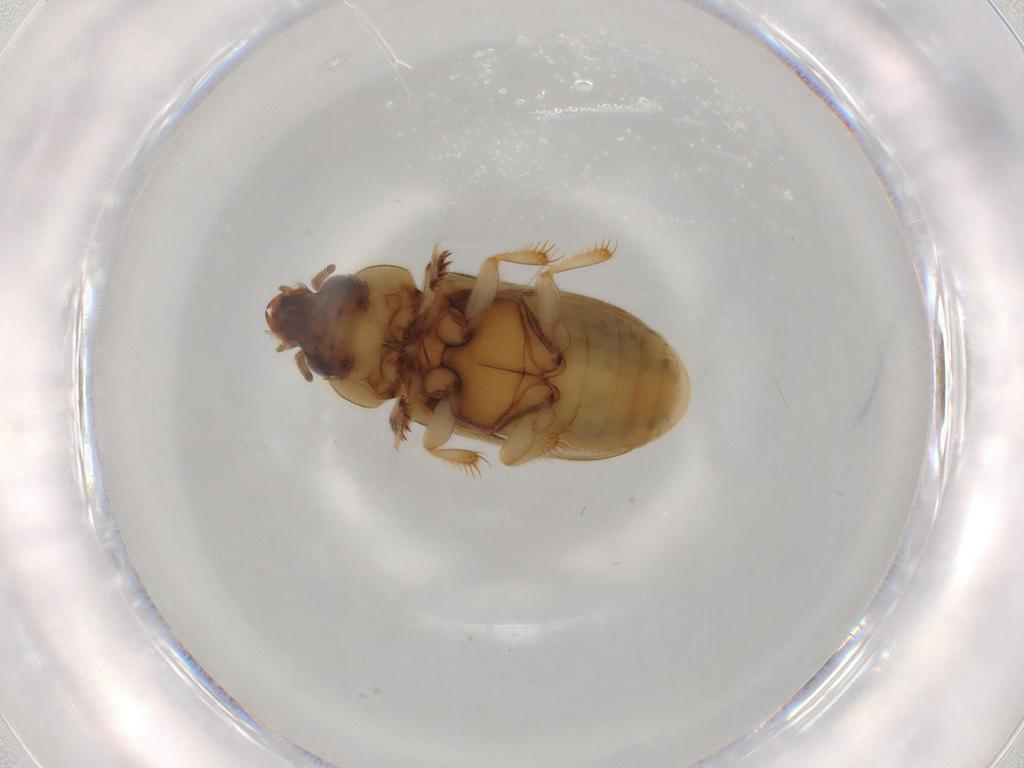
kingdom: Animalia
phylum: Arthropoda
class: Insecta
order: Coleoptera
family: Heteroceridae
